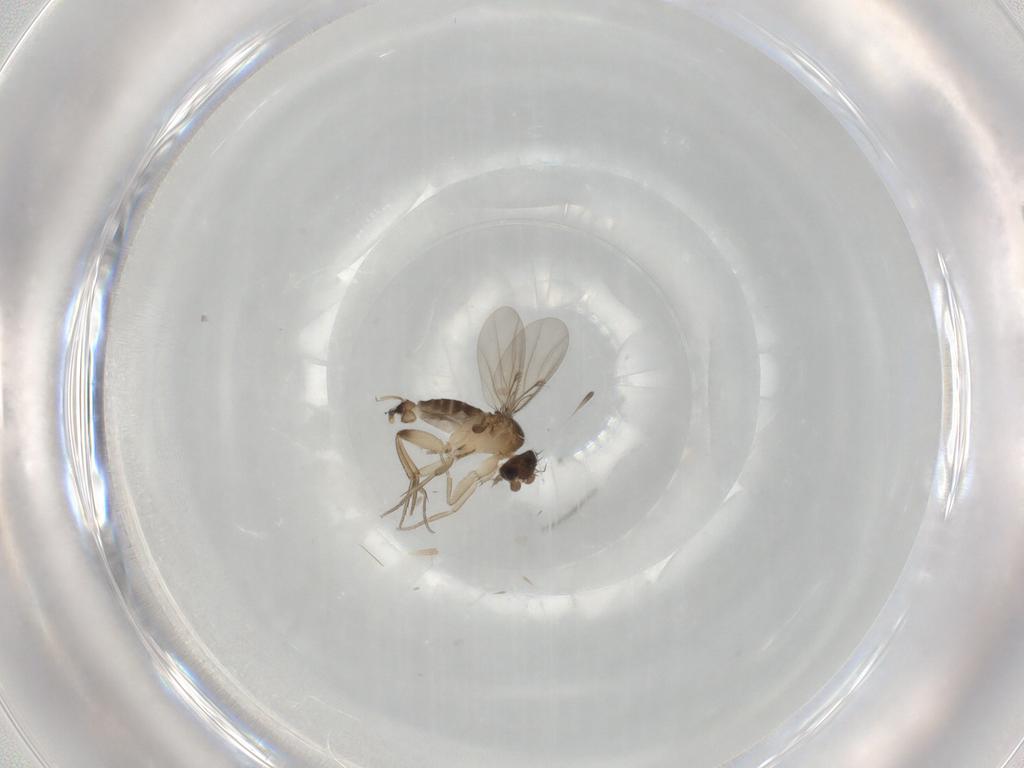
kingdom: Animalia
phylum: Arthropoda
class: Insecta
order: Diptera
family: Phoridae
